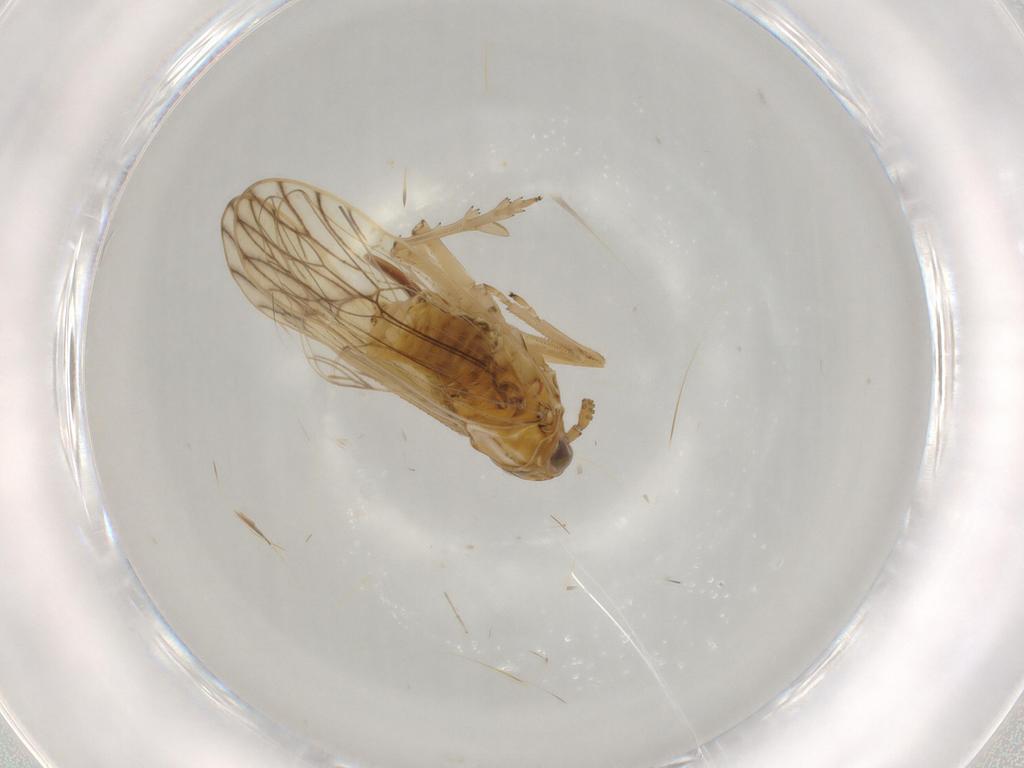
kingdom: Animalia
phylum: Arthropoda
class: Insecta
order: Hemiptera
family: Delphacidae
